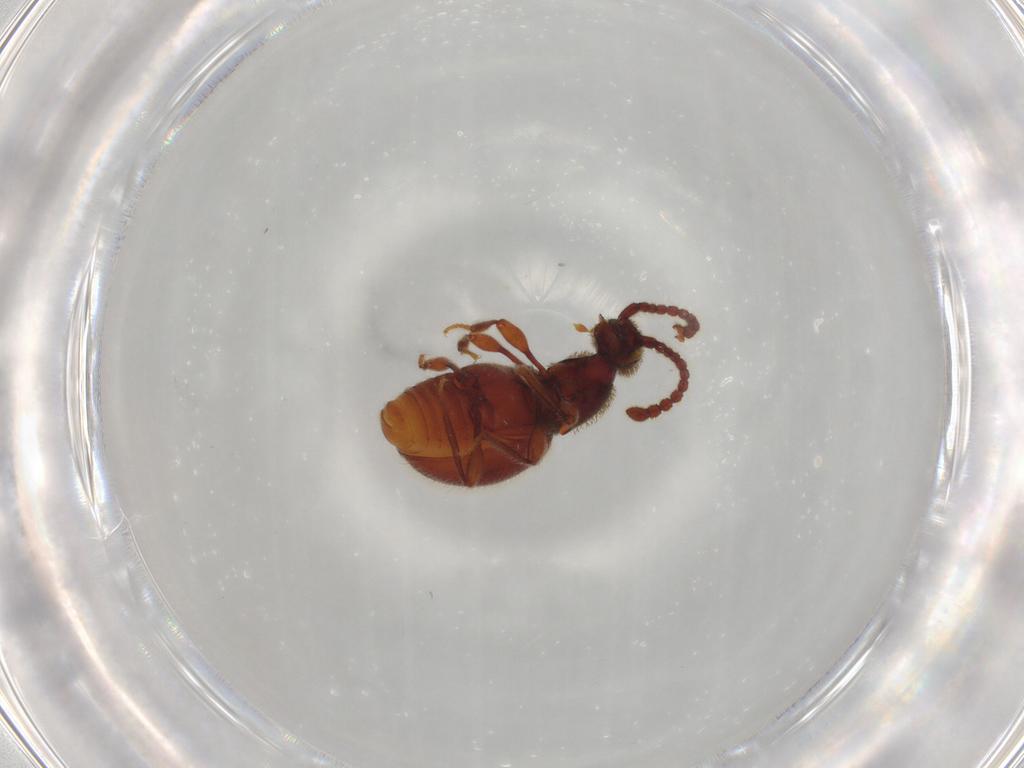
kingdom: Animalia
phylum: Arthropoda
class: Insecta
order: Coleoptera
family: Staphylinidae
